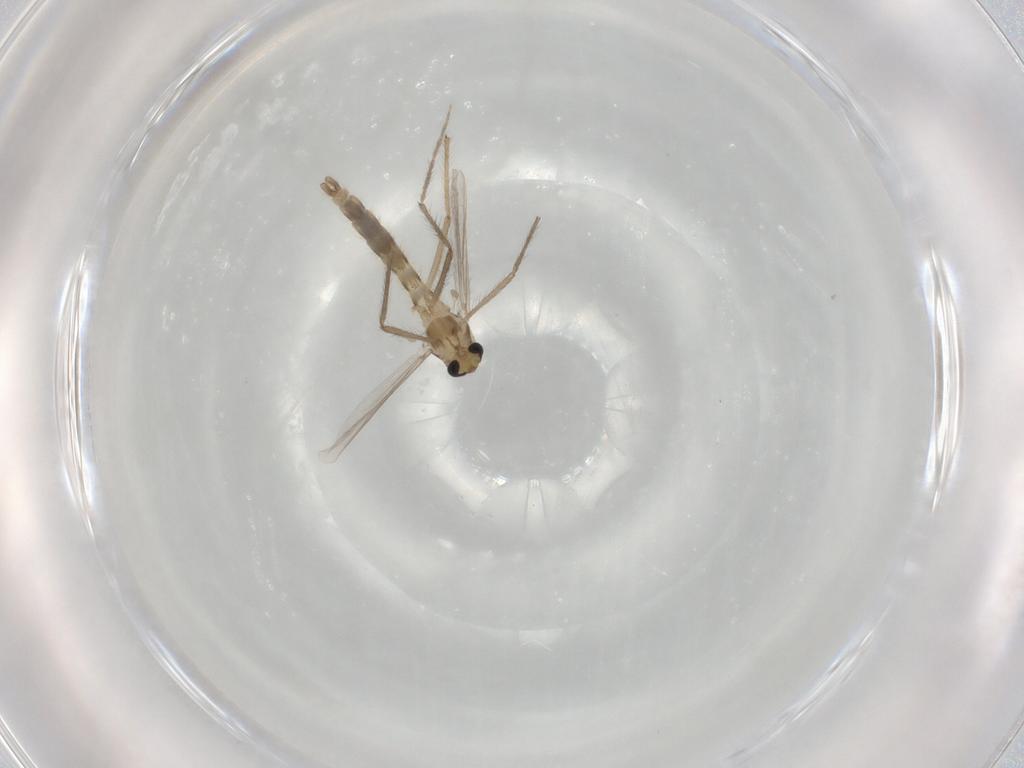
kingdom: Animalia
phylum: Arthropoda
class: Insecta
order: Diptera
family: Chironomidae
